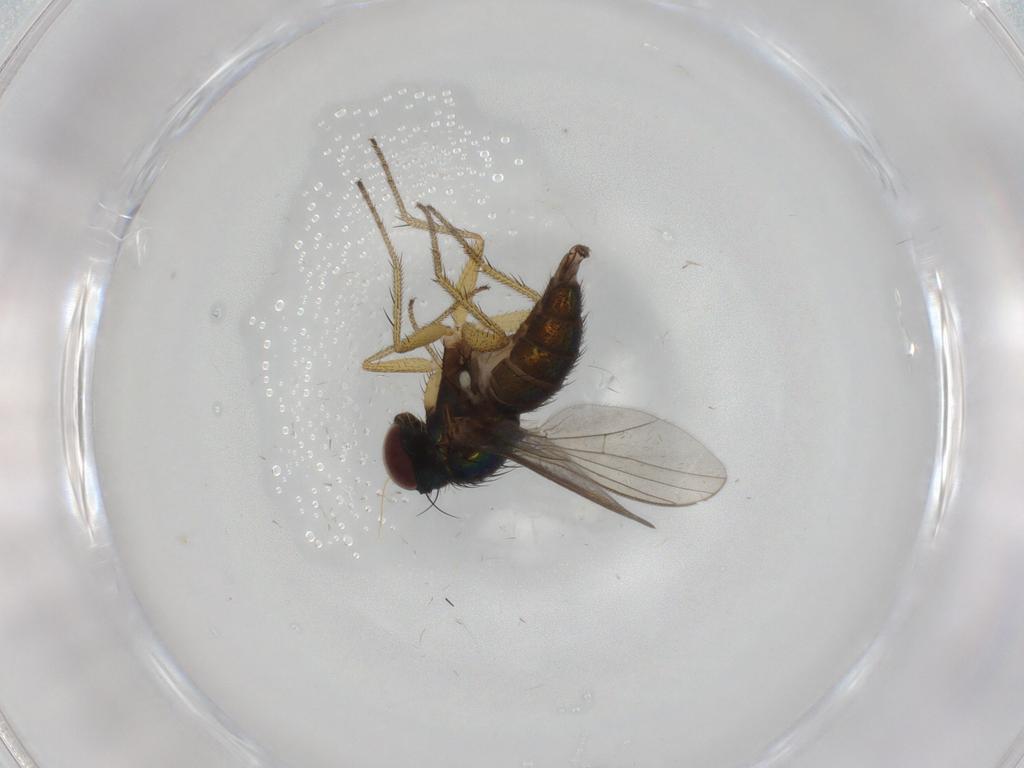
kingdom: Animalia
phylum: Arthropoda
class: Insecta
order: Diptera
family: Dolichopodidae
